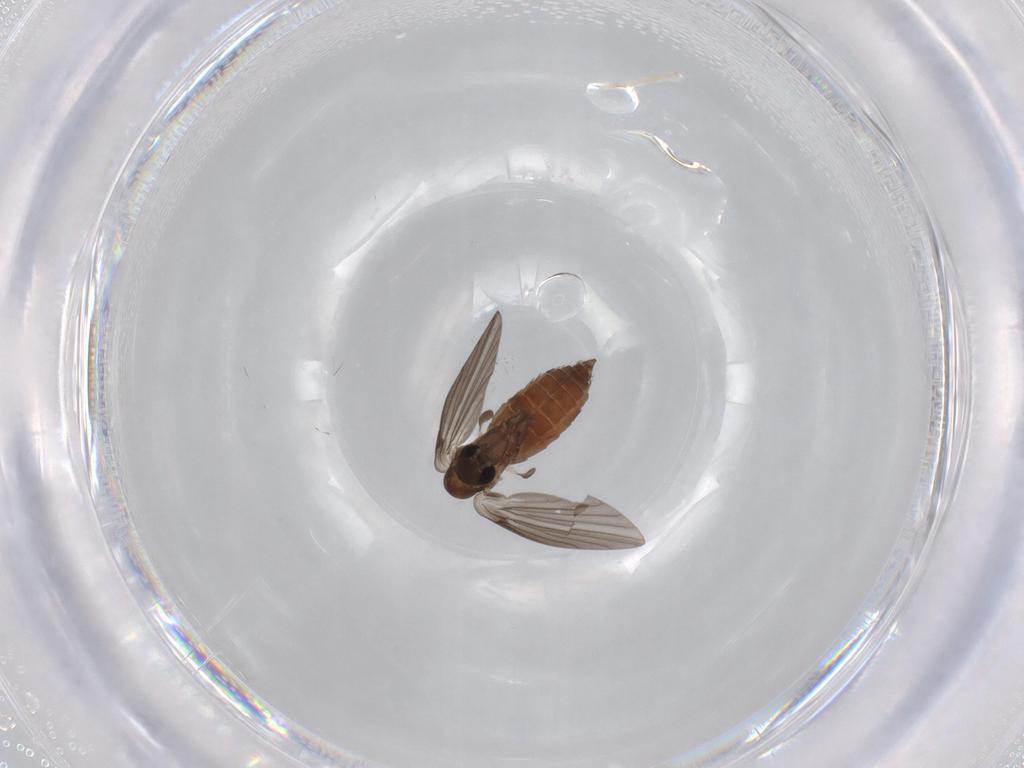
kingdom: Animalia
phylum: Arthropoda
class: Insecta
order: Diptera
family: Psychodidae
